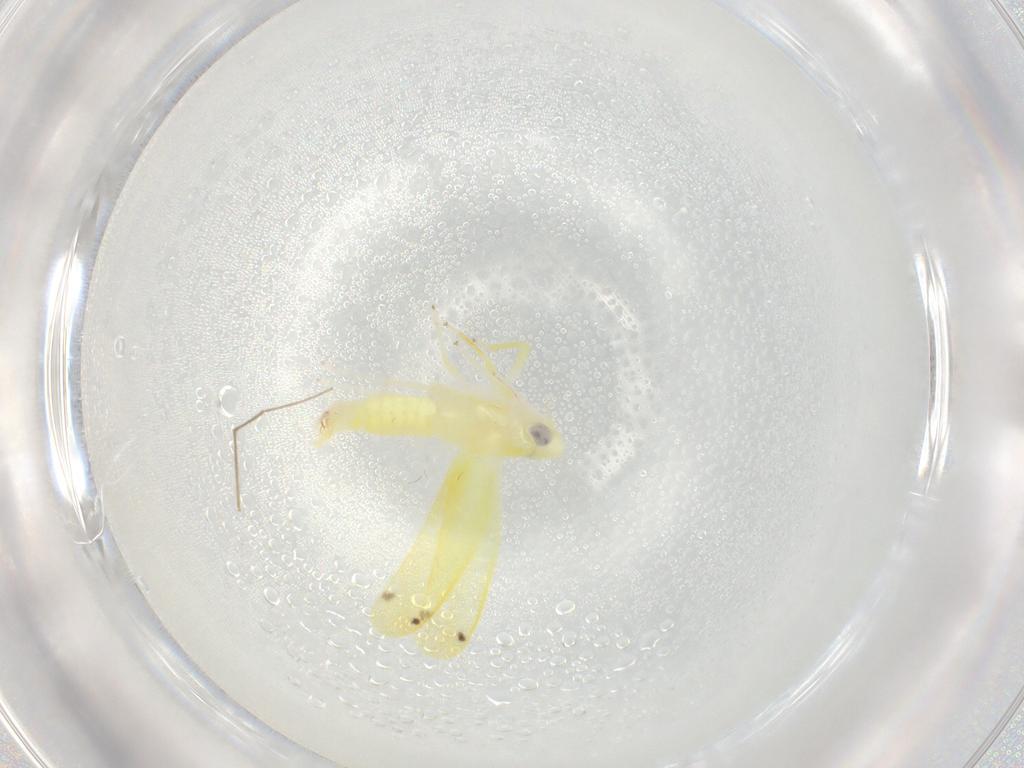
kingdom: Animalia
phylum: Arthropoda
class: Insecta
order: Hemiptera
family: Cicadellidae
